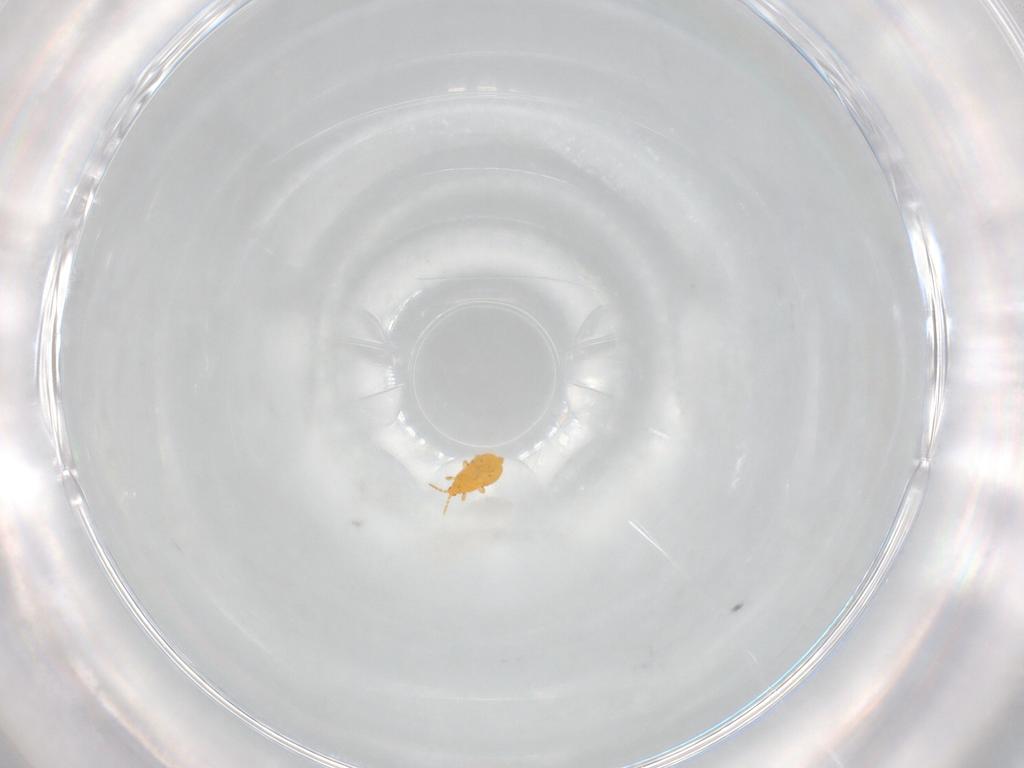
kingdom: Animalia
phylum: Arthropoda
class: Insecta
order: Thysanoptera
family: Heterothripidae
